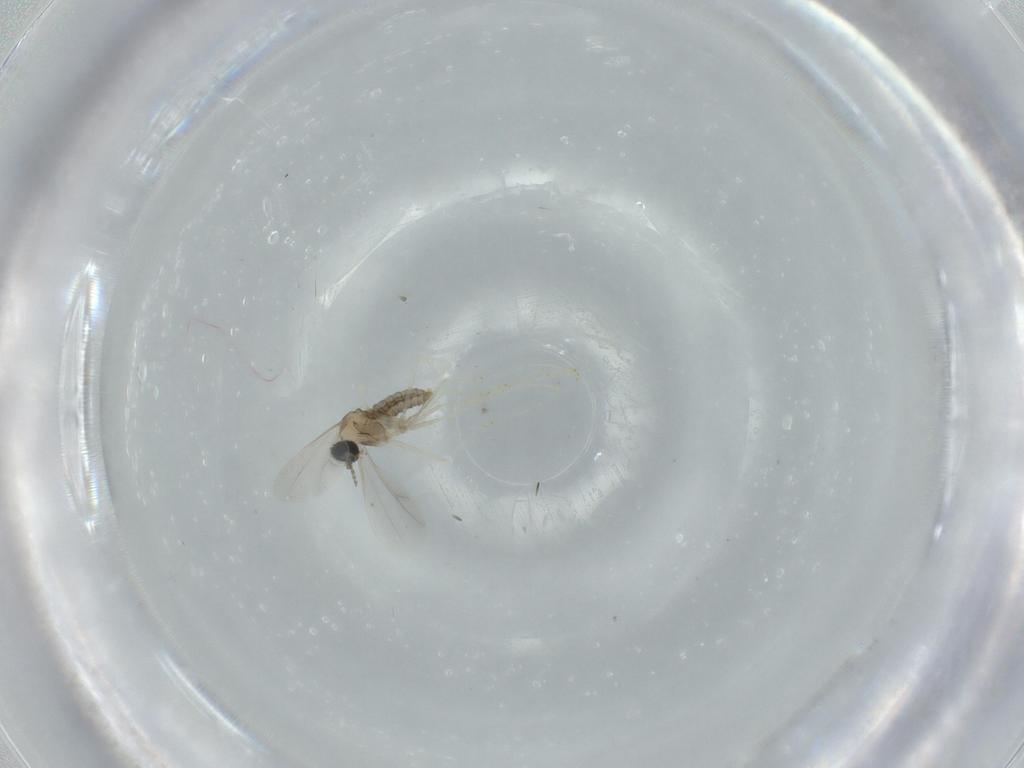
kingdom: Animalia
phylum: Arthropoda
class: Insecta
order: Diptera
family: Cecidomyiidae
